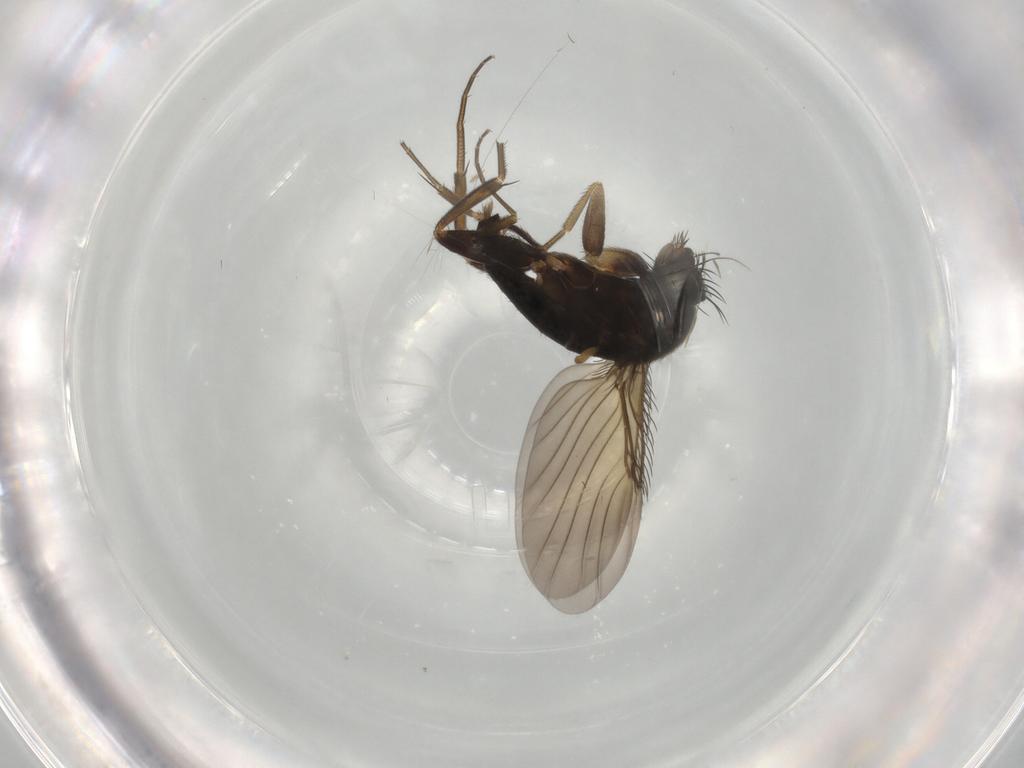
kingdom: Animalia
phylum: Arthropoda
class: Insecta
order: Diptera
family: Phoridae
